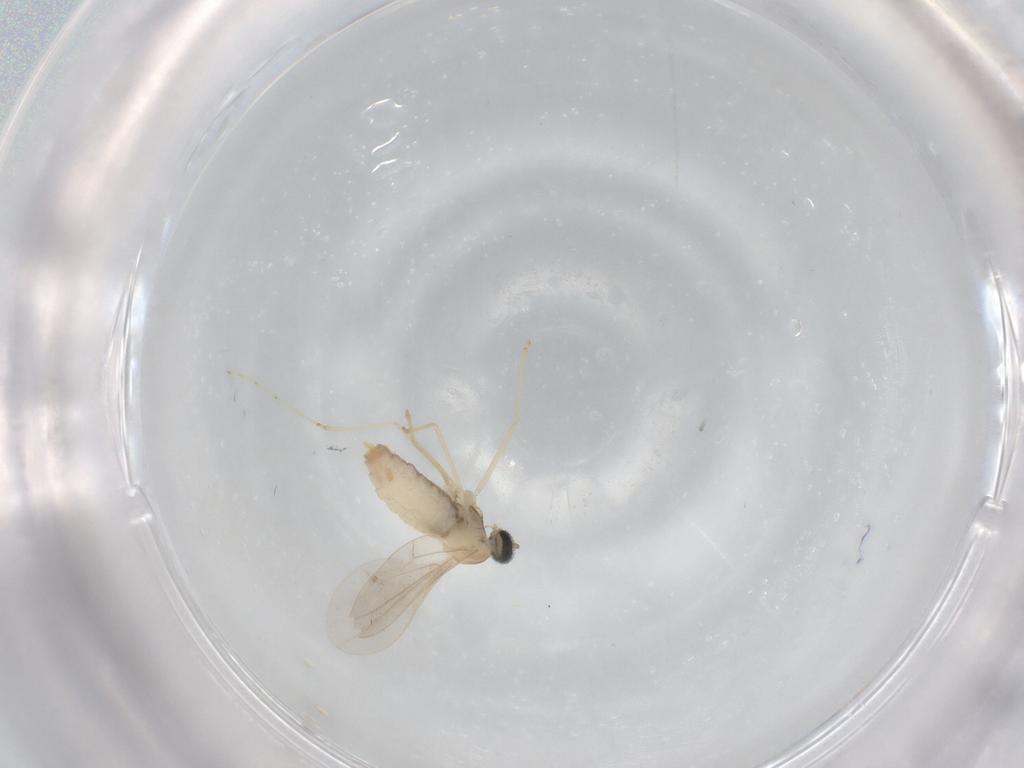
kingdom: Animalia
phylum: Arthropoda
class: Insecta
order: Diptera
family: Cecidomyiidae
